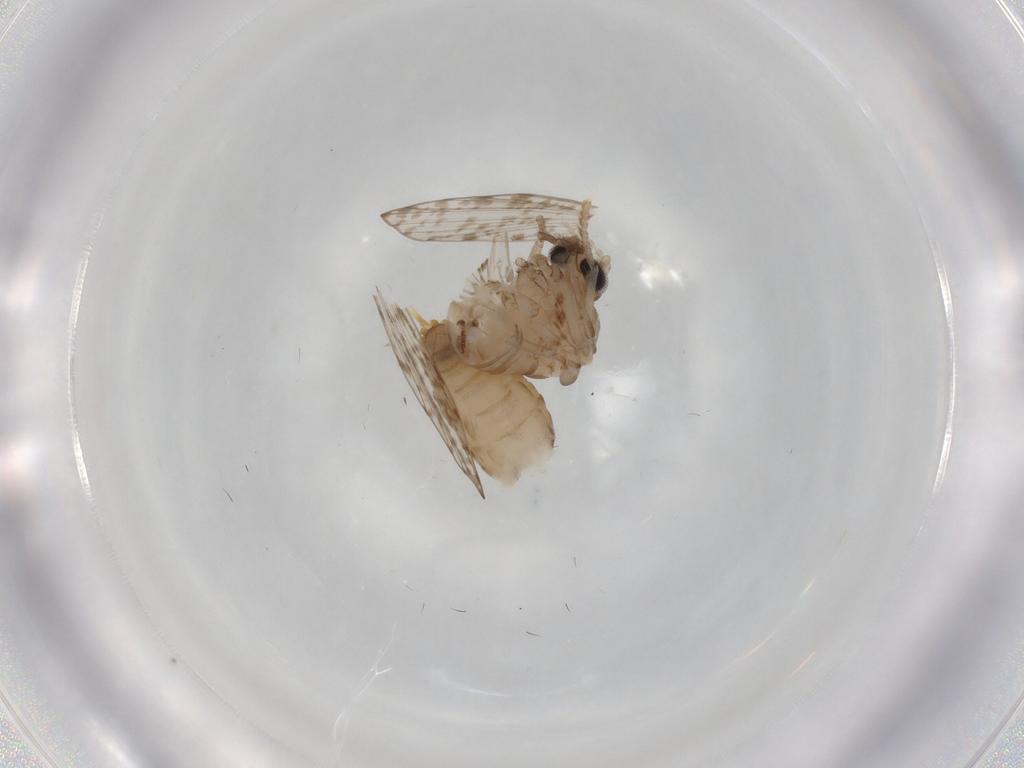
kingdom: Animalia
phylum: Arthropoda
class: Insecta
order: Diptera
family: Psychodidae
